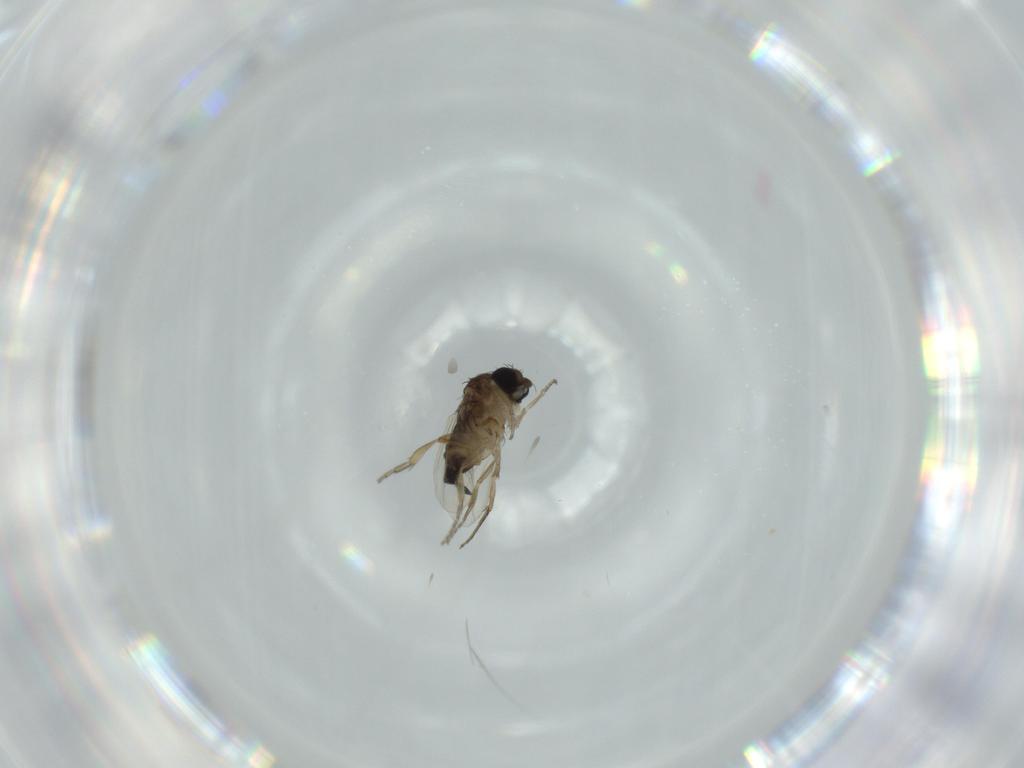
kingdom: Animalia
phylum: Arthropoda
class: Insecta
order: Diptera
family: Phoridae
